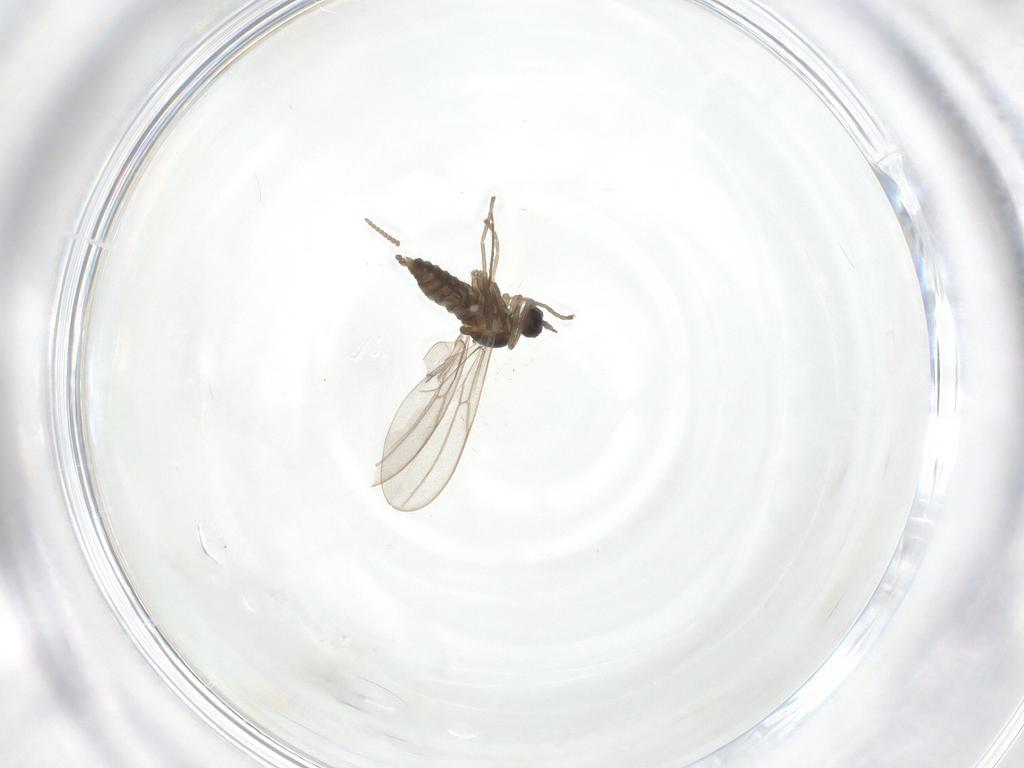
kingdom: Animalia
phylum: Arthropoda
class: Insecta
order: Diptera
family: Cecidomyiidae
